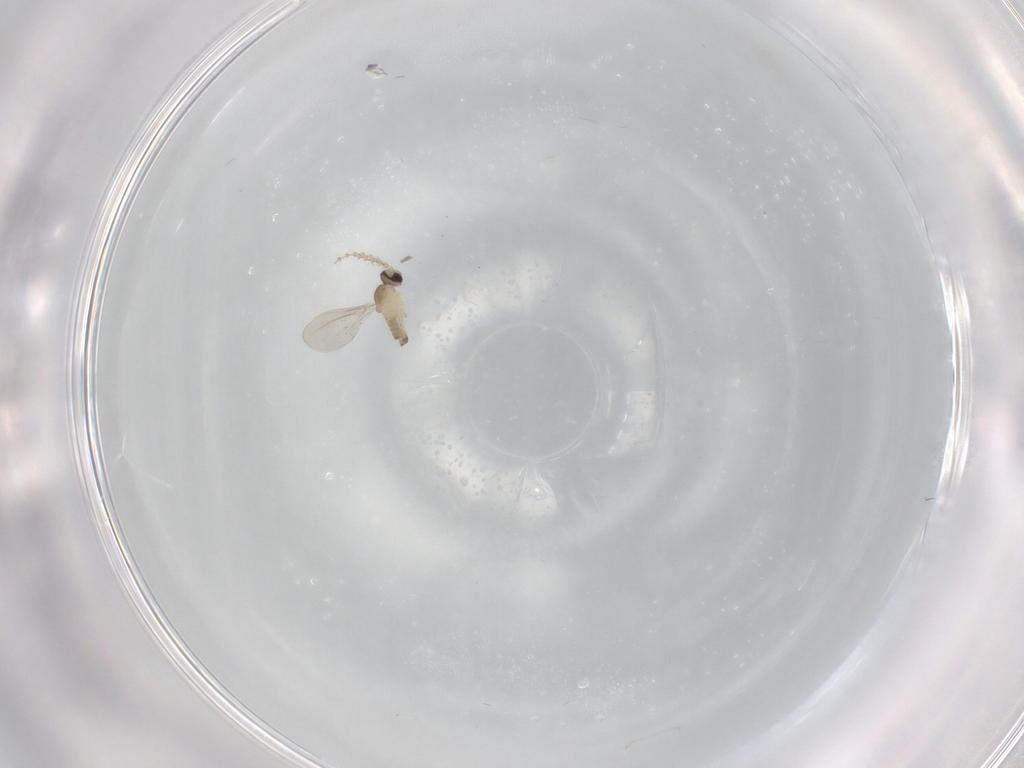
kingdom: Animalia
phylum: Arthropoda
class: Insecta
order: Diptera
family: Cecidomyiidae
